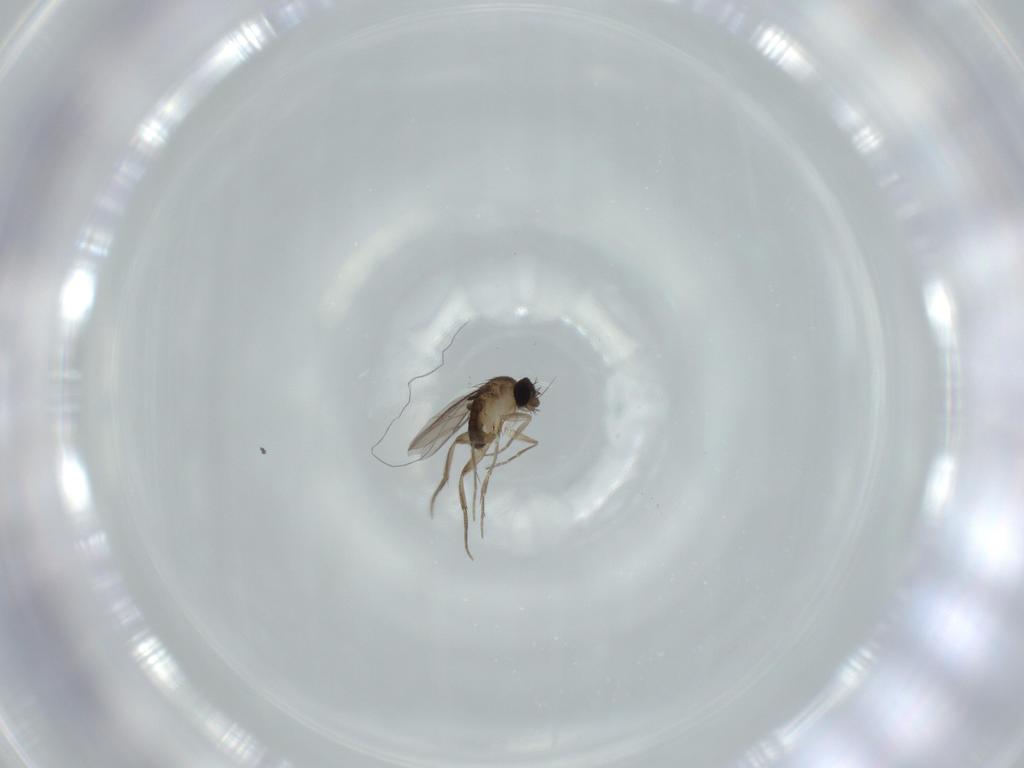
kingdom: Animalia
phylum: Arthropoda
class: Insecta
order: Diptera
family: Phoridae
